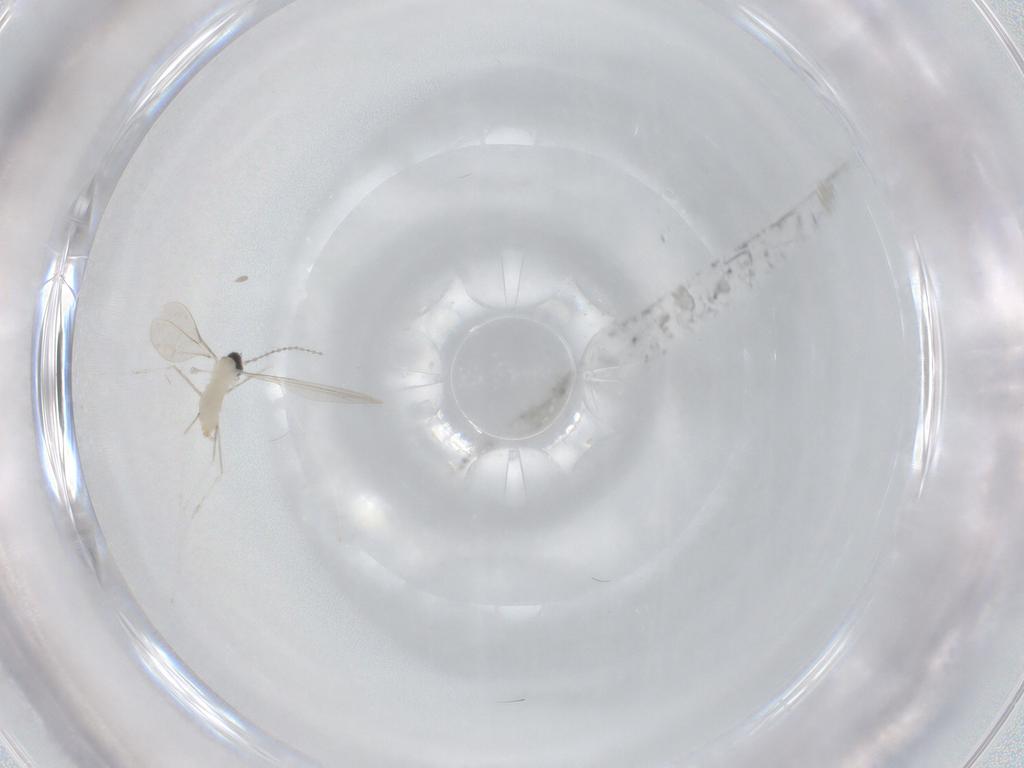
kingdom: Animalia
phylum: Arthropoda
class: Insecta
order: Diptera
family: Cecidomyiidae
